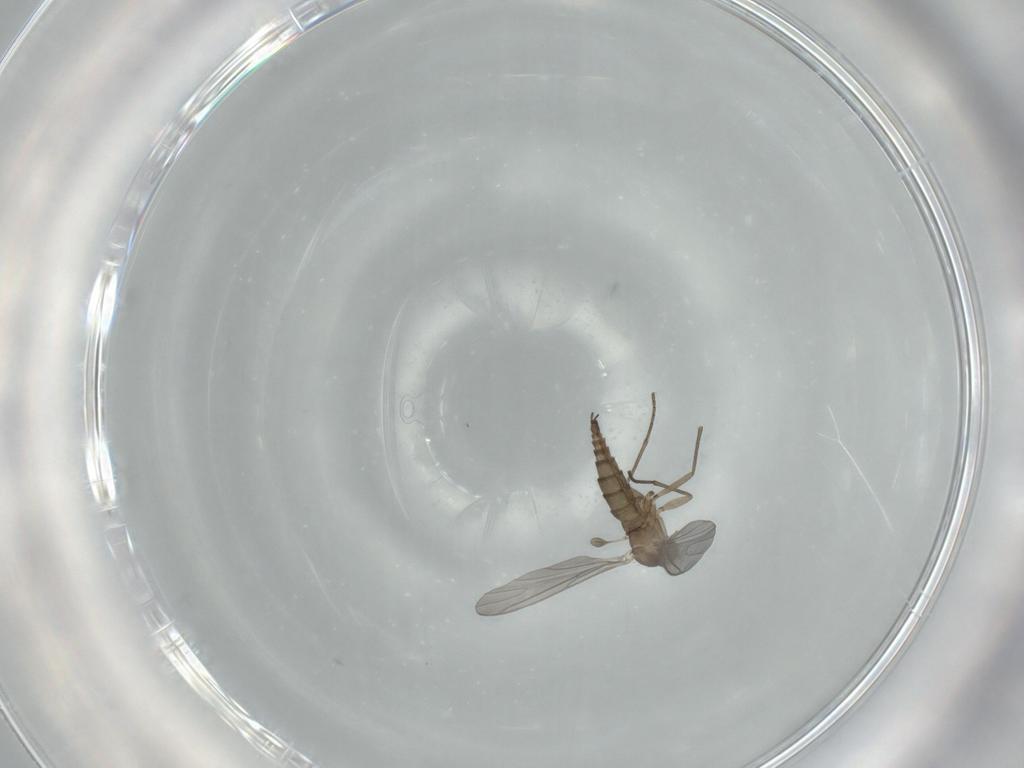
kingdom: Animalia
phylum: Arthropoda
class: Insecta
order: Diptera
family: Sciaridae
